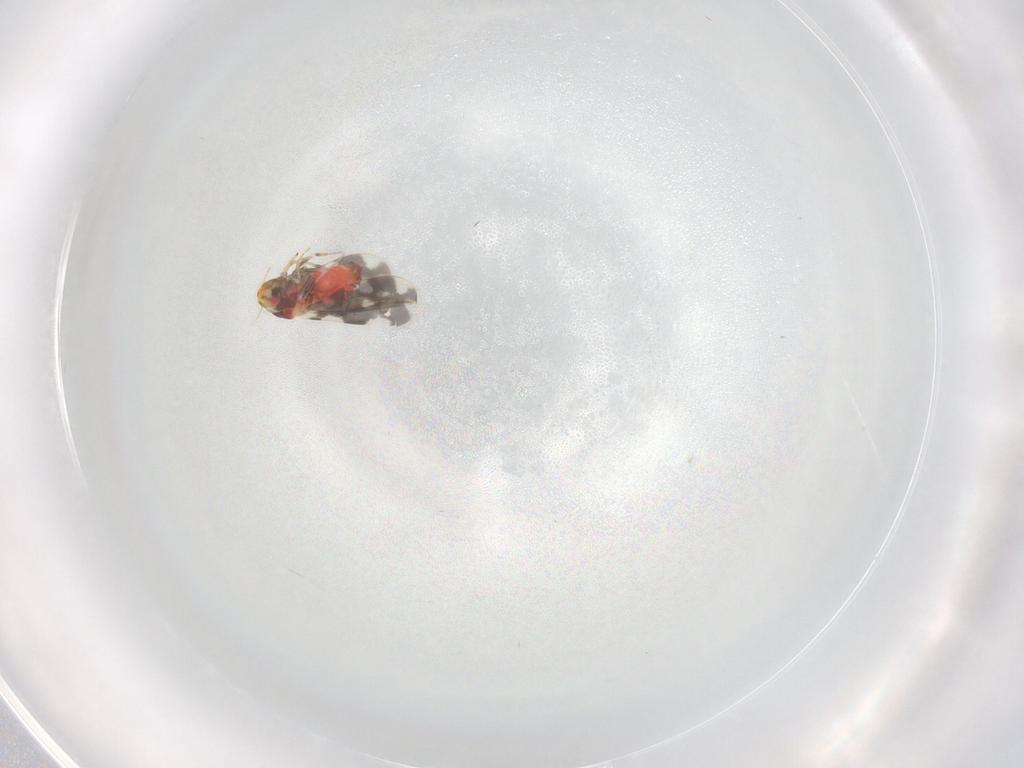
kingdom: Animalia
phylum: Arthropoda
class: Insecta
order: Hemiptera
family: Aleyrodidae
